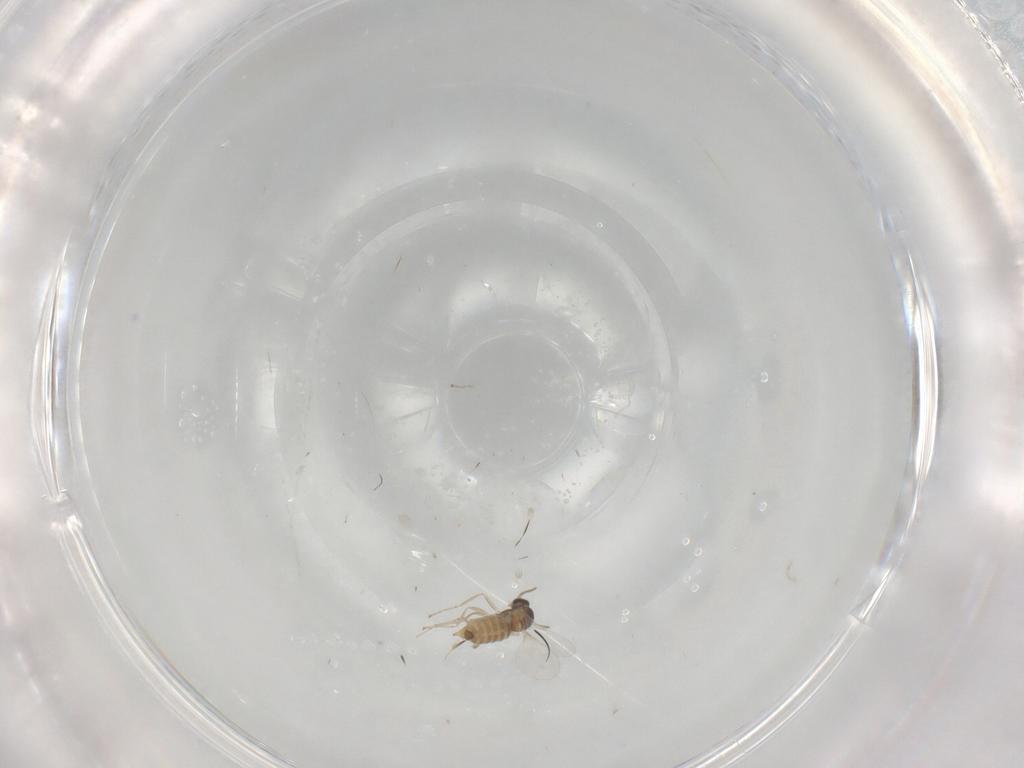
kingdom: Animalia
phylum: Arthropoda
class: Insecta
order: Diptera
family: Cecidomyiidae
